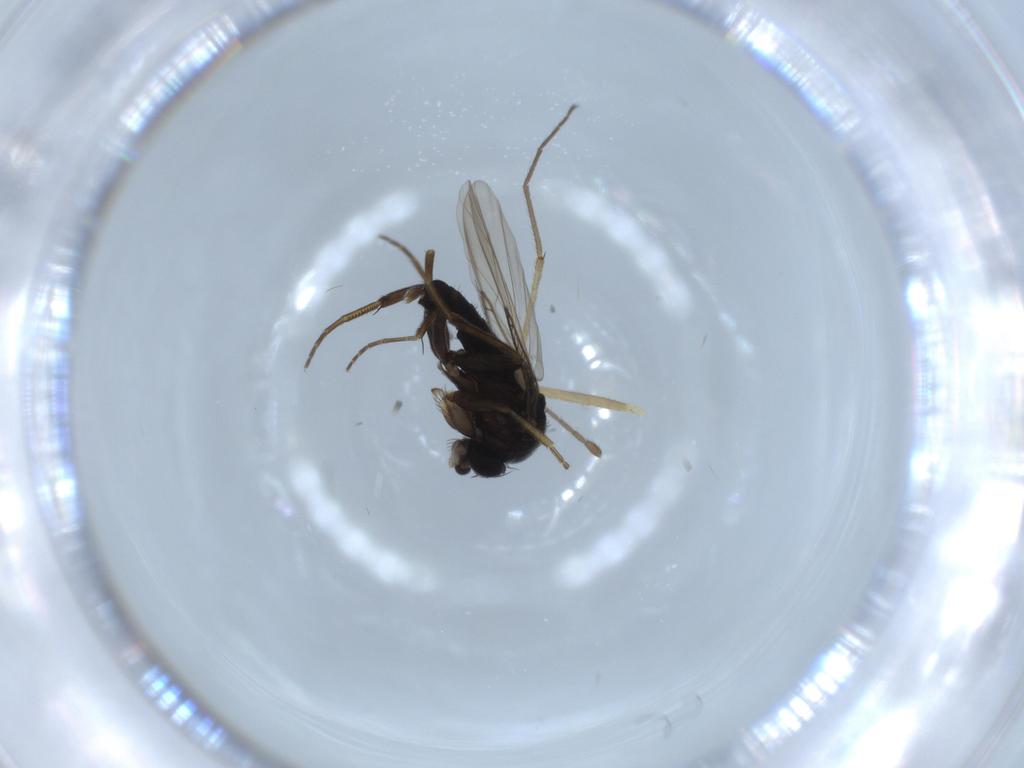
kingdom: Animalia
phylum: Arthropoda
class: Insecta
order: Diptera
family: Phoridae
